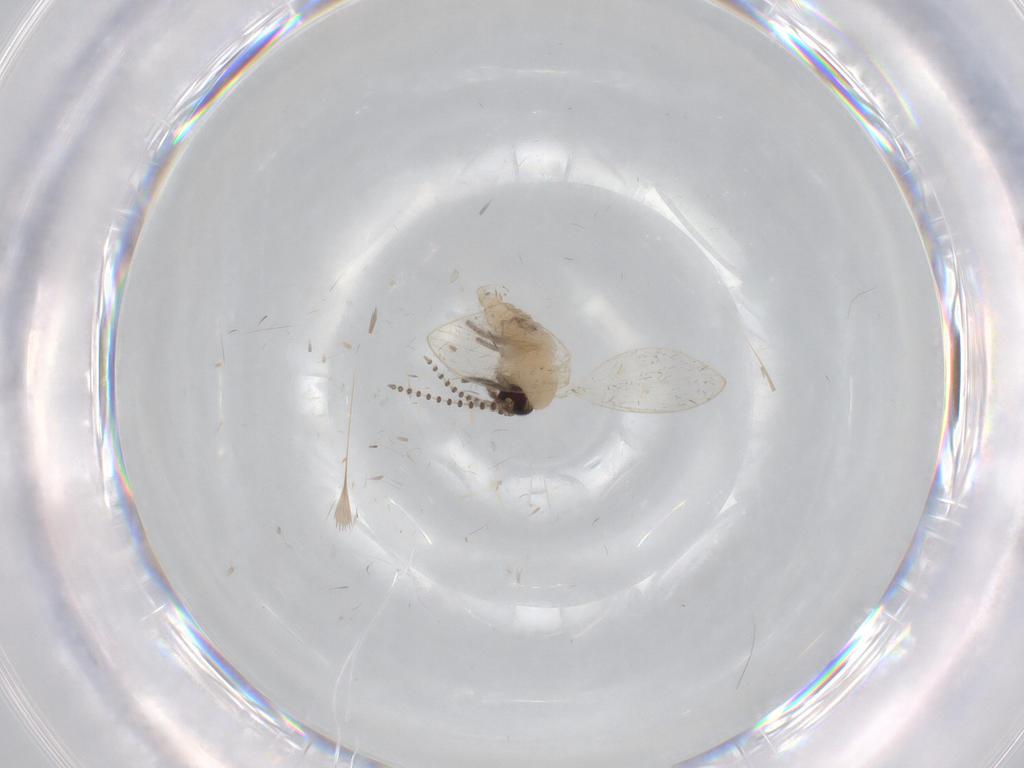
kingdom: Animalia
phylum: Arthropoda
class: Insecta
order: Diptera
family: Psychodidae
